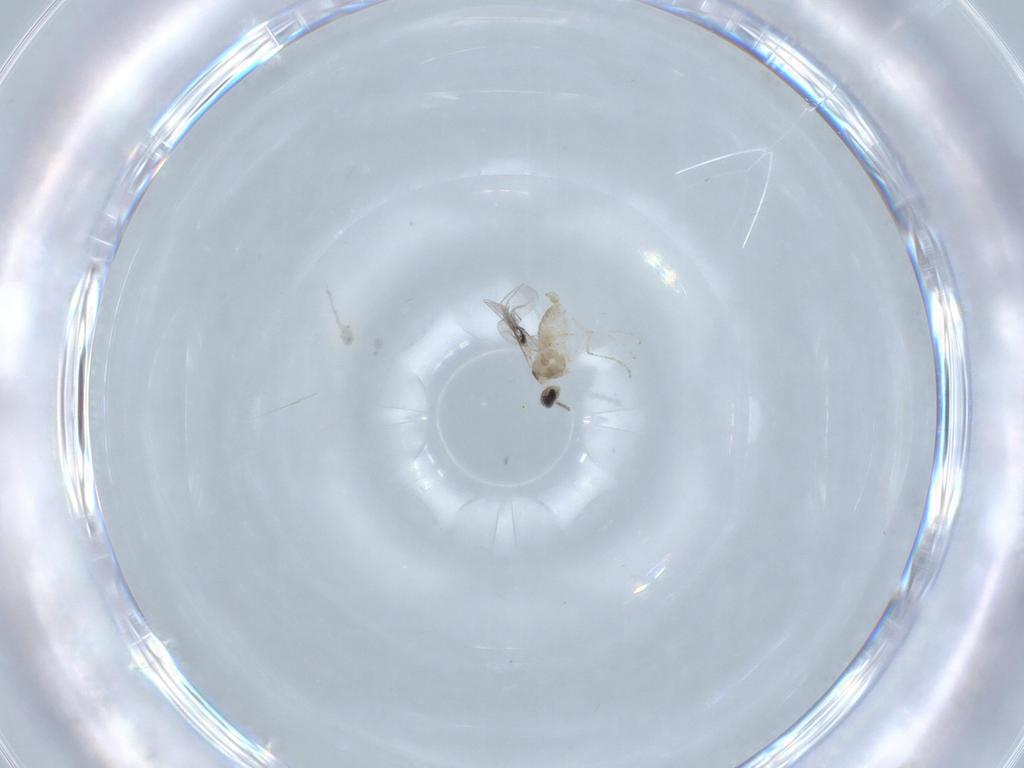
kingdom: Animalia
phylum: Arthropoda
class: Insecta
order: Diptera
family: Cecidomyiidae
